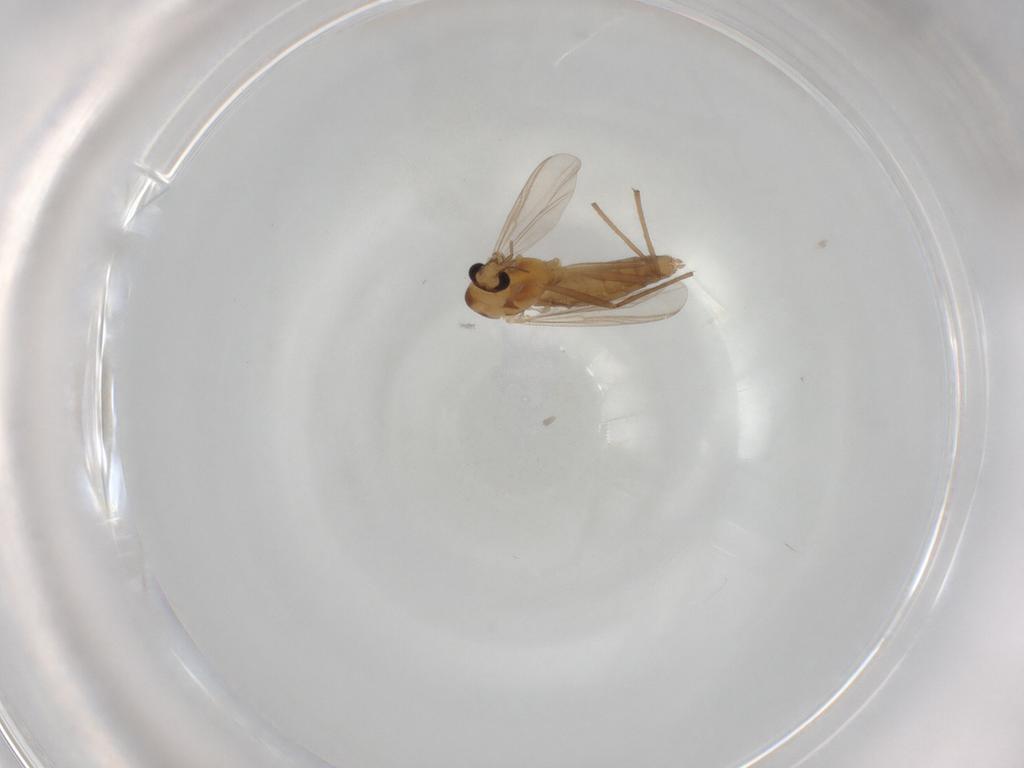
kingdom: Animalia
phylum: Arthropoda
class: Insecta
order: Diptera
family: Chironomidae
